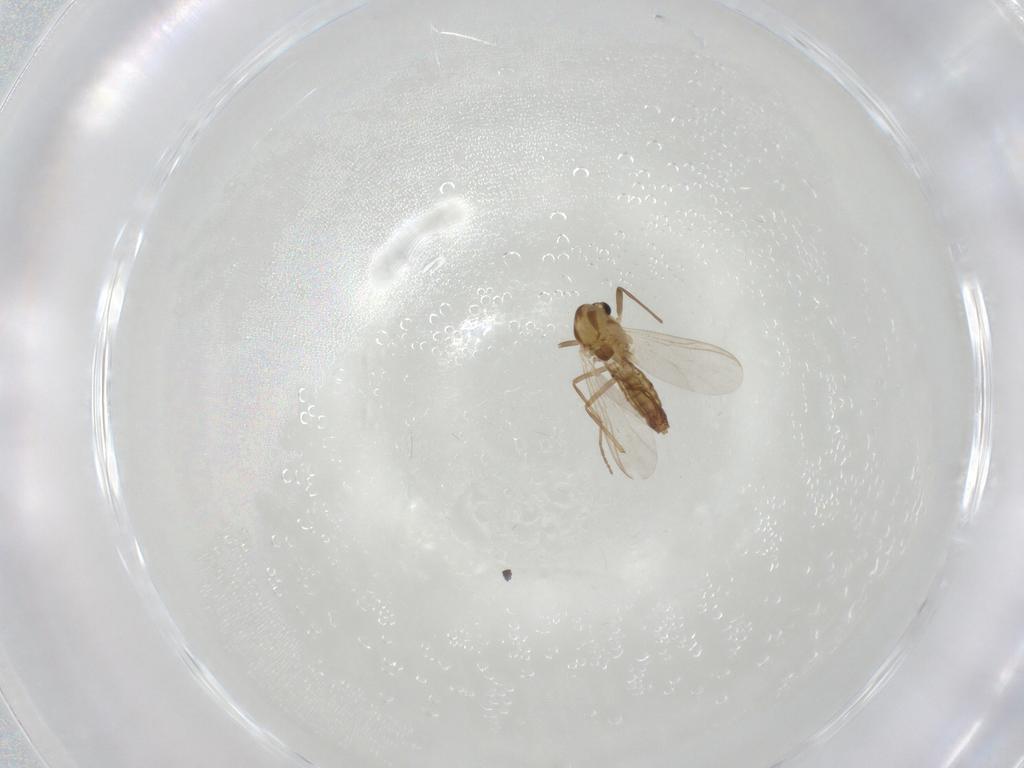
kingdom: Animalia
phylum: Arthropoda
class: Insecta
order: Diptera
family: Chironomidae
